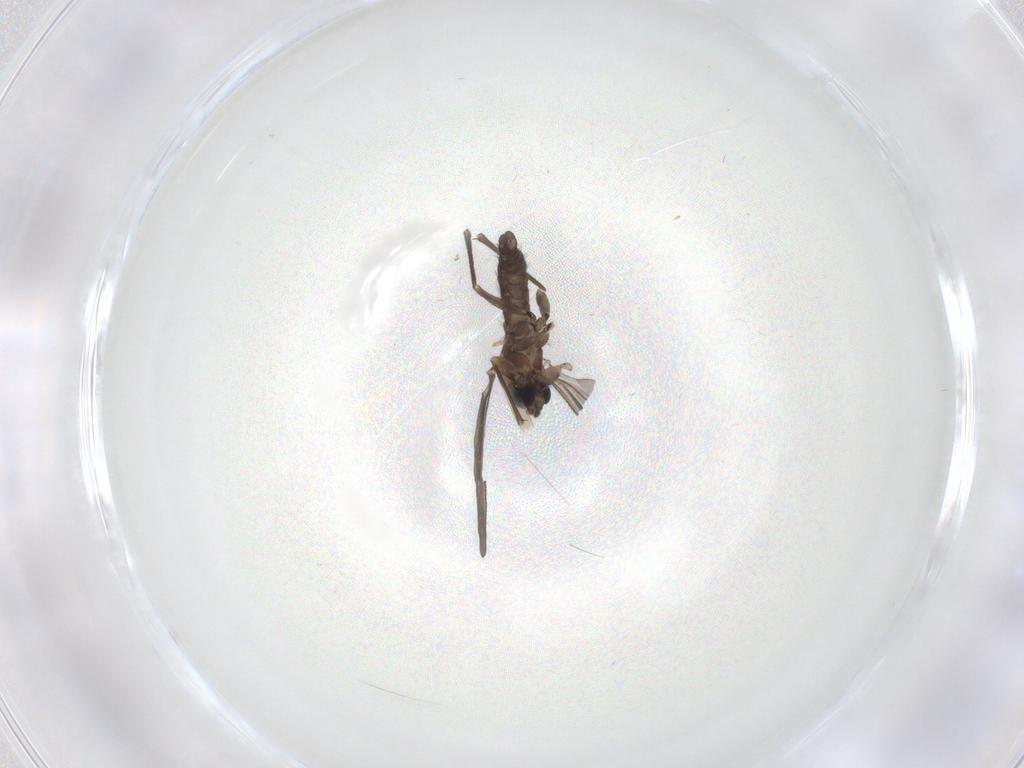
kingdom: Animalia
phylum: Arthropoda
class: Insecta
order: Diptera
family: Sciaridae
